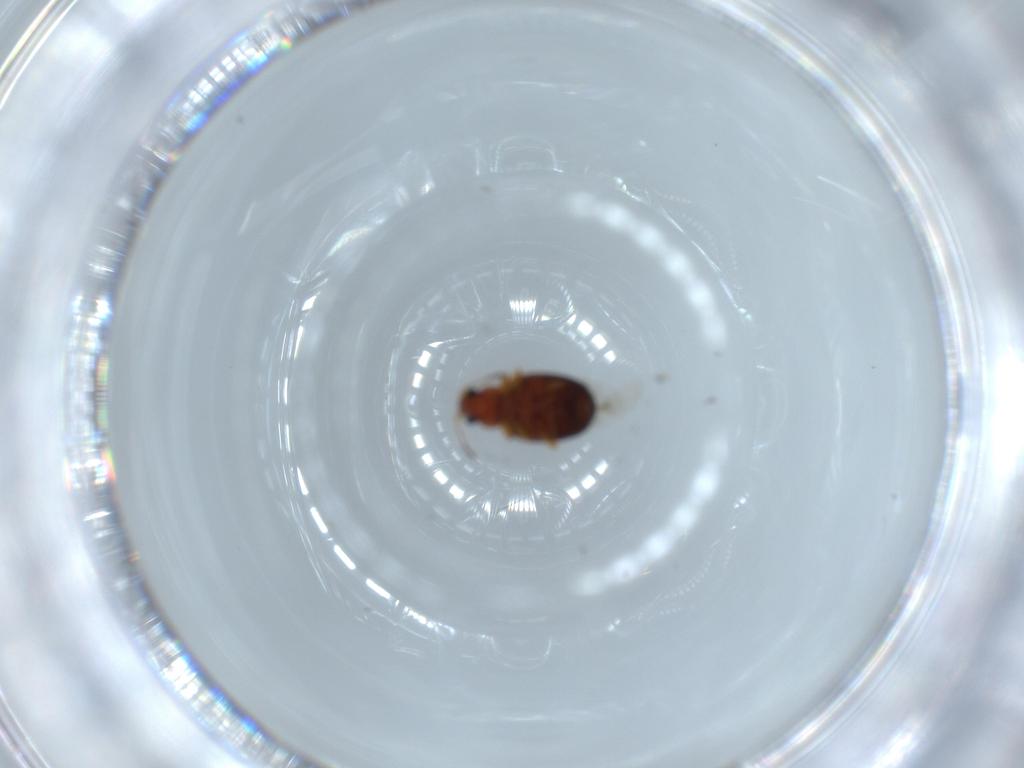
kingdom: Animalia
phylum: Arthropoda
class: Insecta
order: Coleoptera
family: Latridiidae
